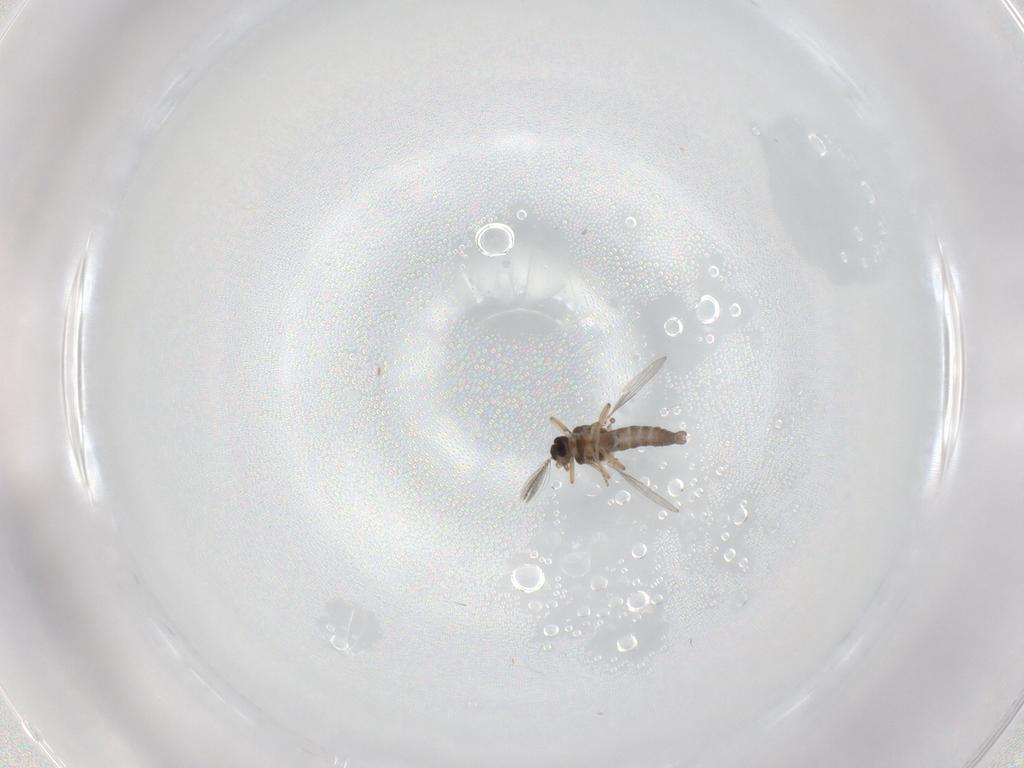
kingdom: Animalia
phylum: Arthropoda
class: Insecta
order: Diptera
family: Ceratopogonidae
